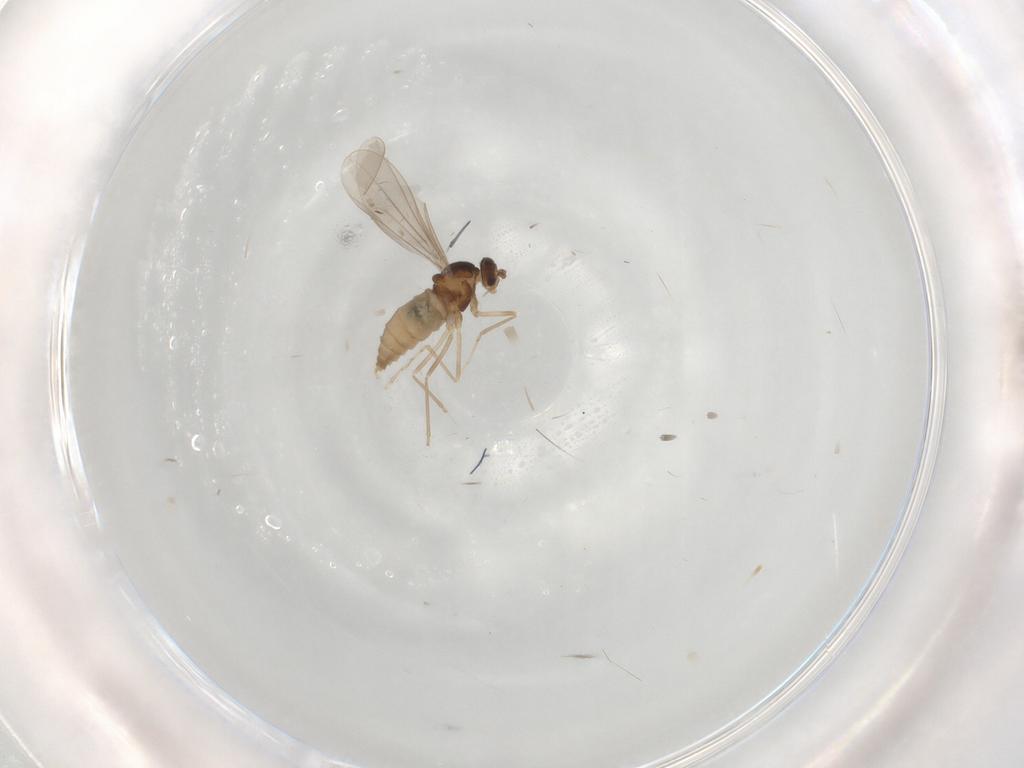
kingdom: Animalia
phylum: Arthropoda
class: Insecta
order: Diptera
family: Cecidomyiidae
